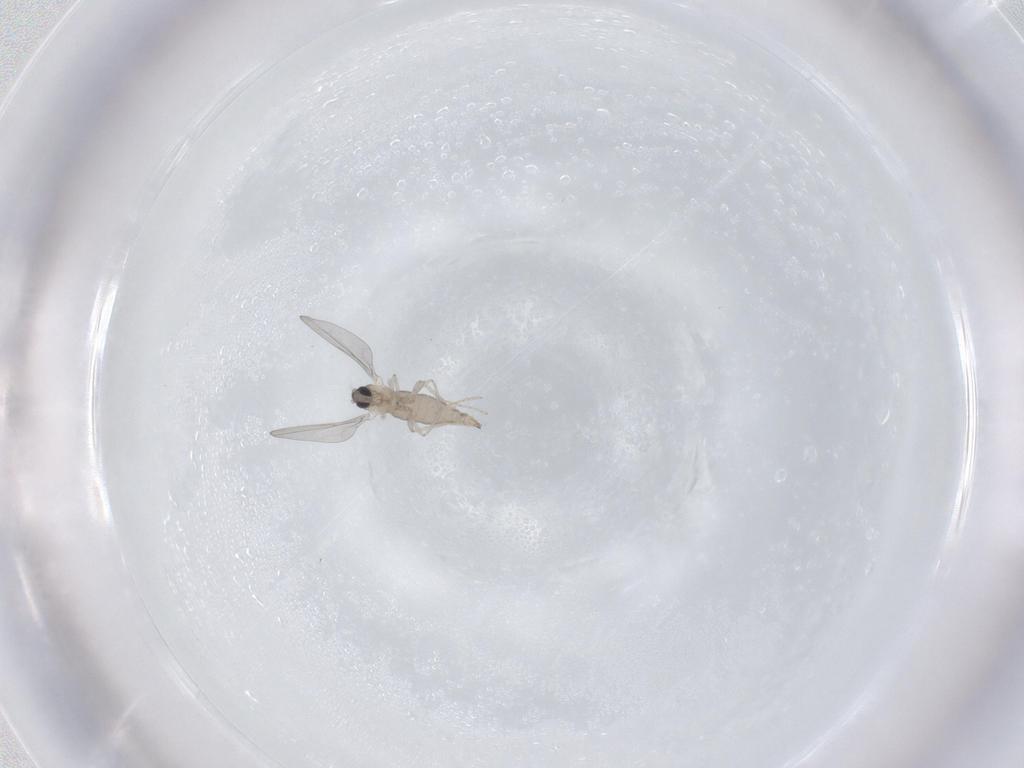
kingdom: Animalia
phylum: Arthropoda
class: Insecta
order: Diptera
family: Cecidomyiidae
